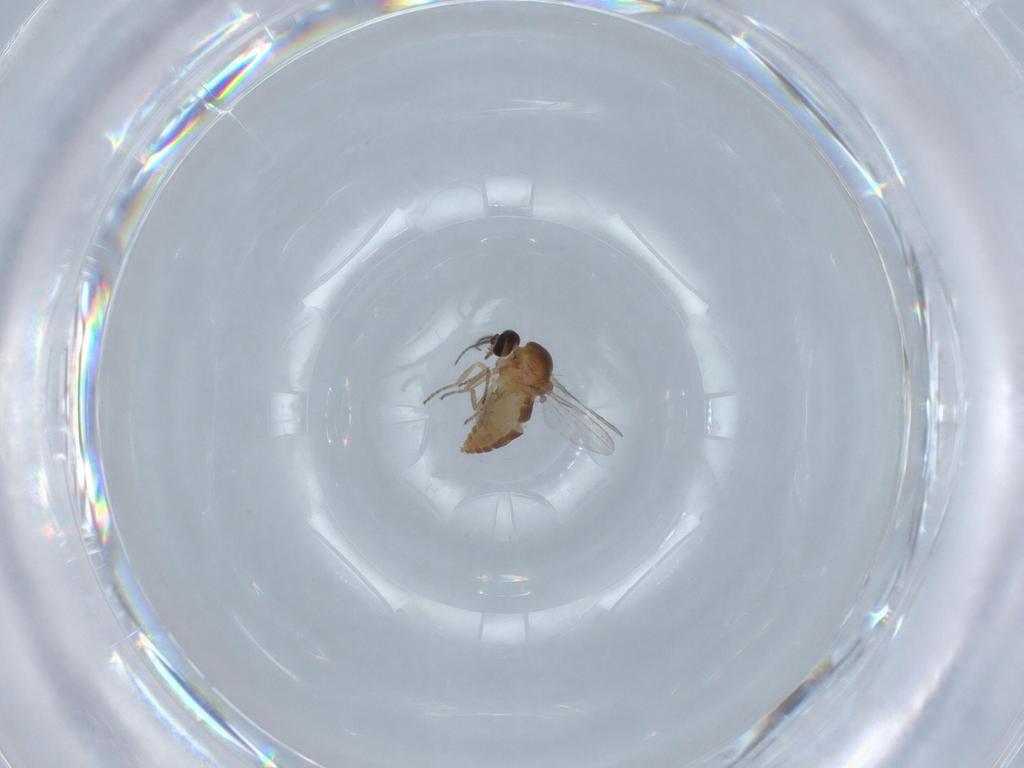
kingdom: Animalia
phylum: Arthropoda
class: Insecta
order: Diptera
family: Ceratopogonidae
